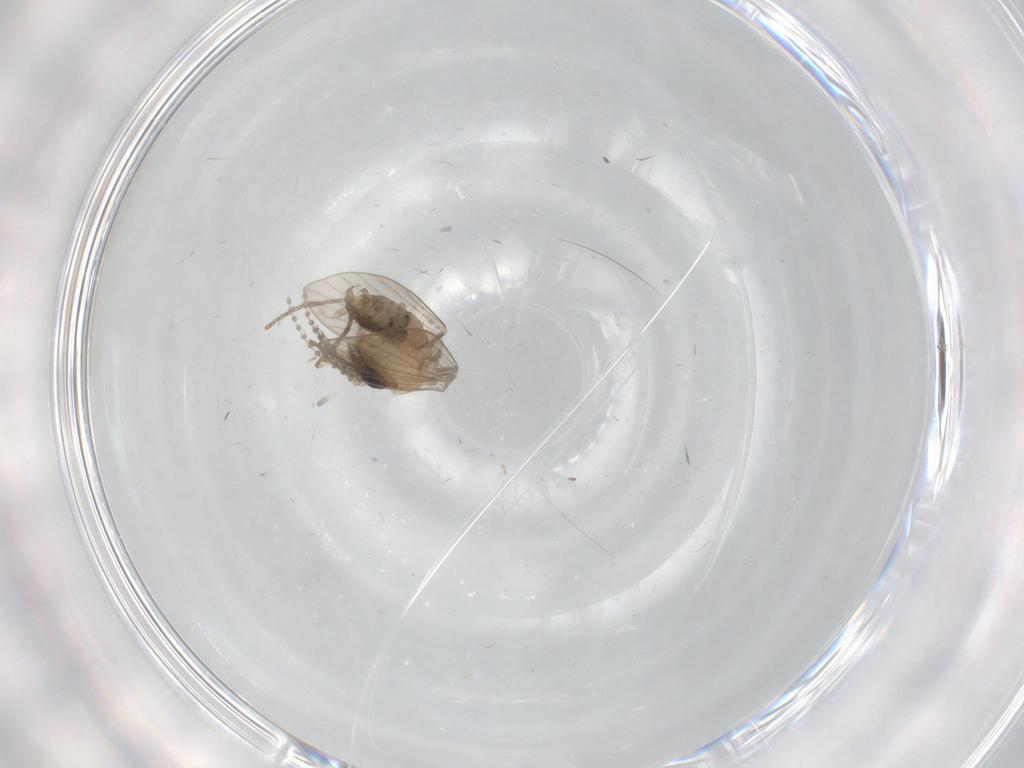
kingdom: Animalia
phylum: Arthropoda
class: Insecta
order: Diptera
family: Psychodidae
